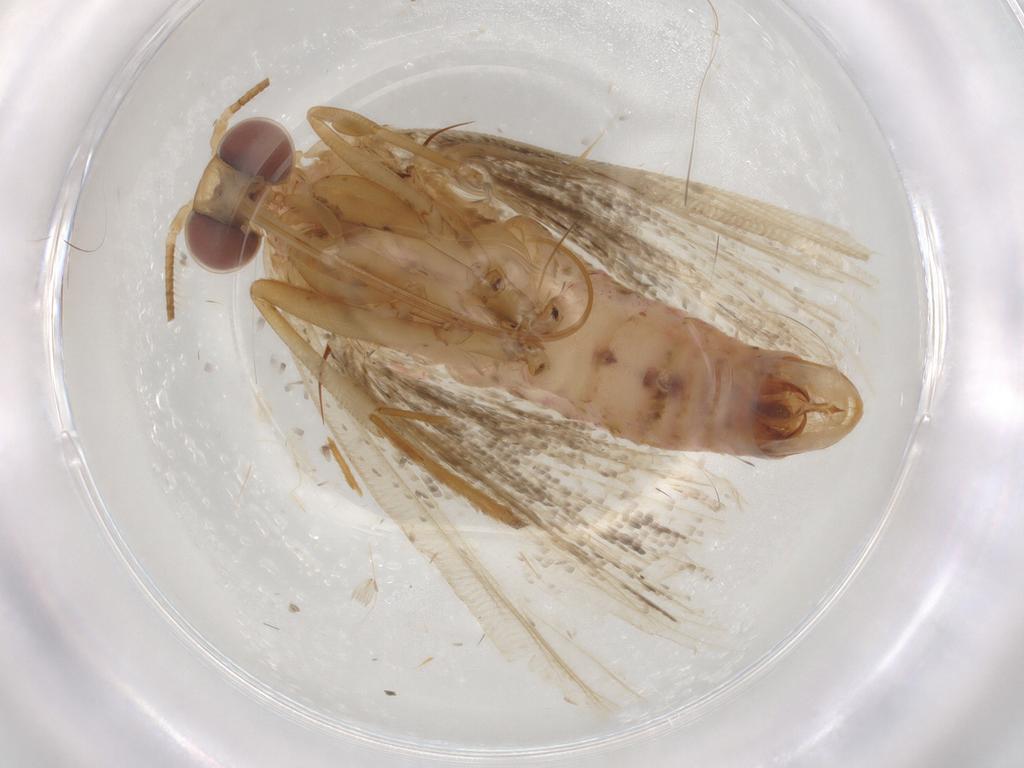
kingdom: Animalia
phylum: Arthropoda
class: Insecta
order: Lepidoptera
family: Pyralidae
